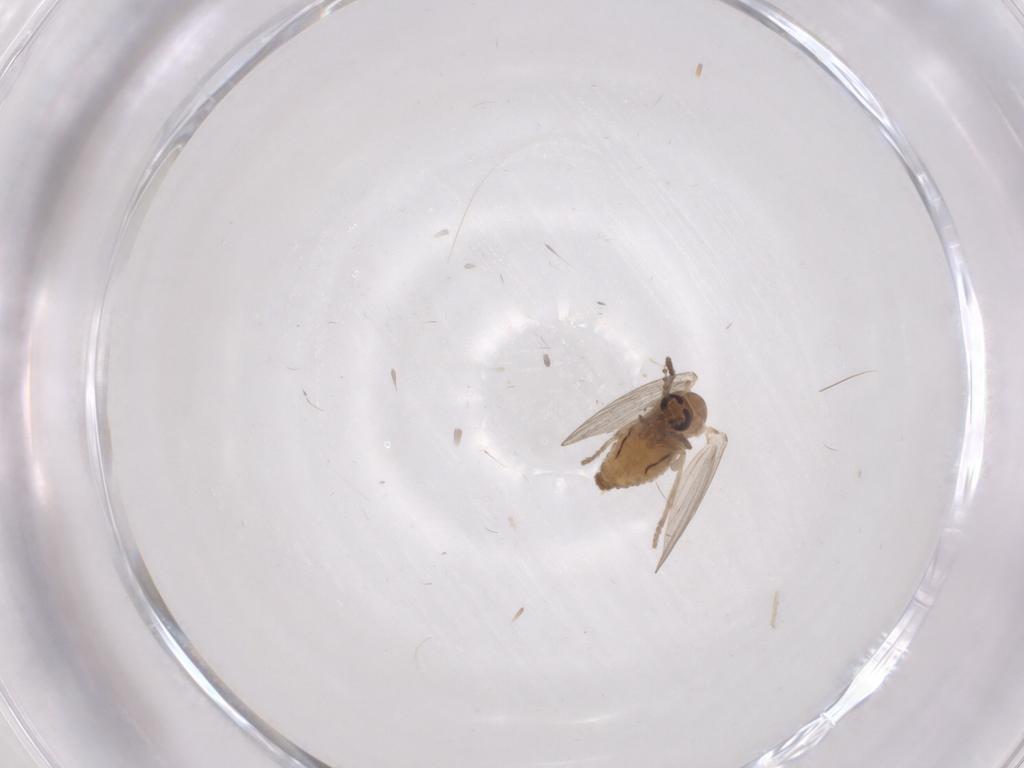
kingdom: Animalia
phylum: Arthropoda
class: Insecta
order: Diptera
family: Psychodidae
